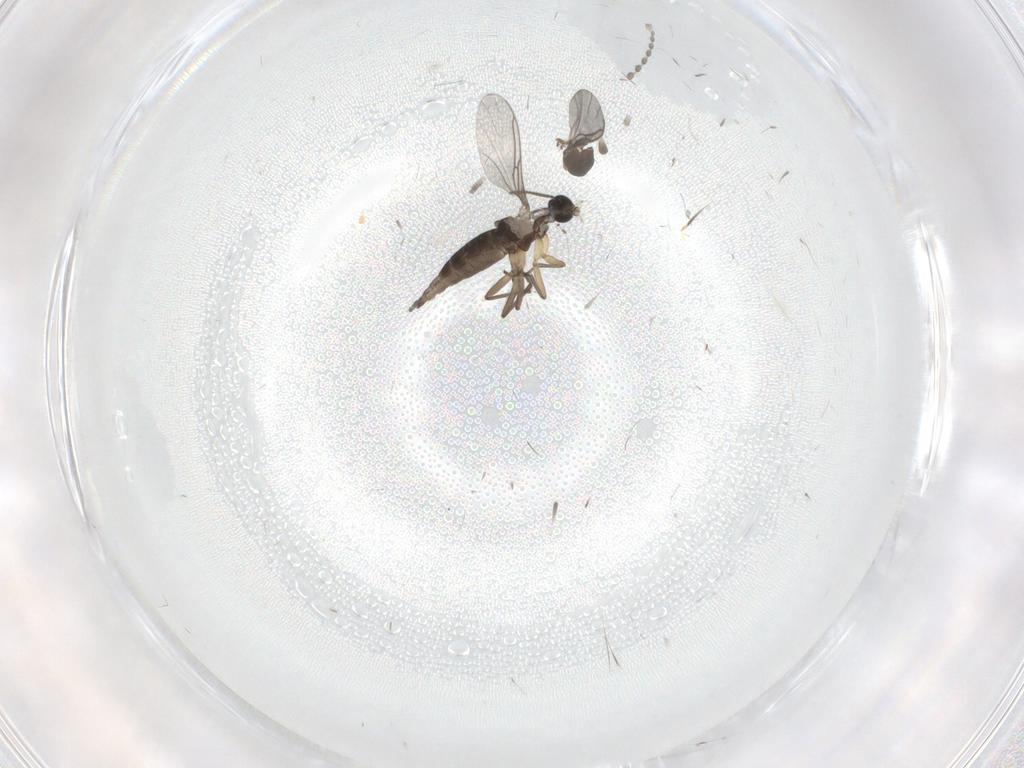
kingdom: Animalia
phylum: Arthropoda
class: Insecta
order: Diptera
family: Sciaridae
